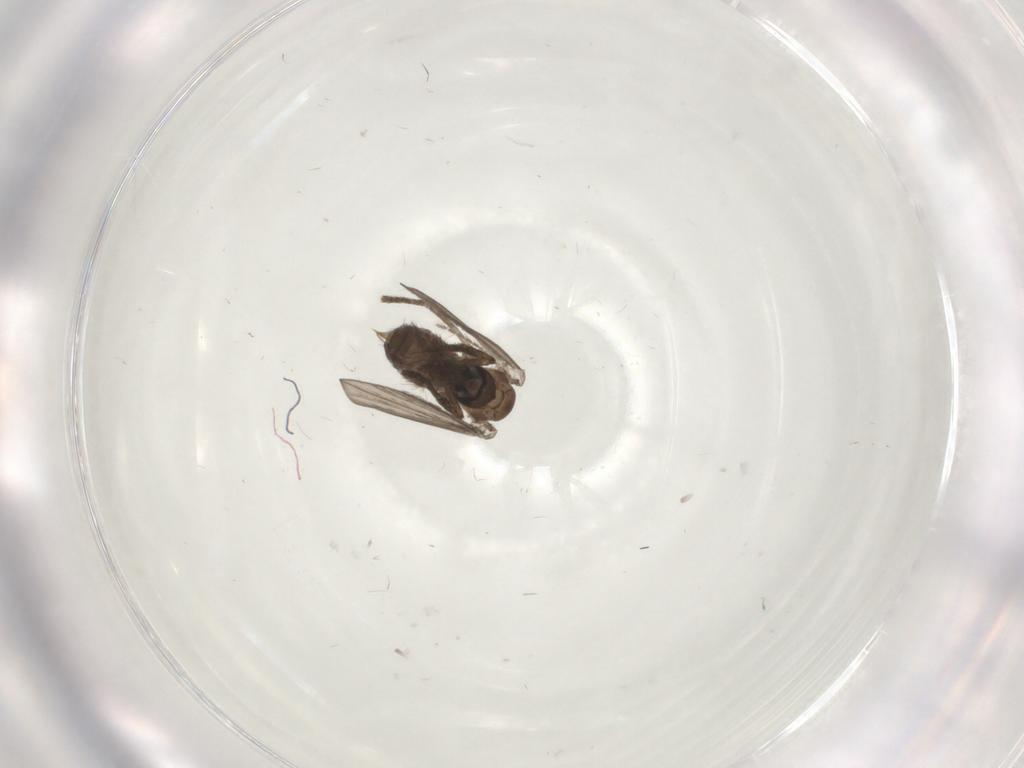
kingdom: Animalia
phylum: Arthropoda
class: Insecta
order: Diptera
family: Psychodidae
